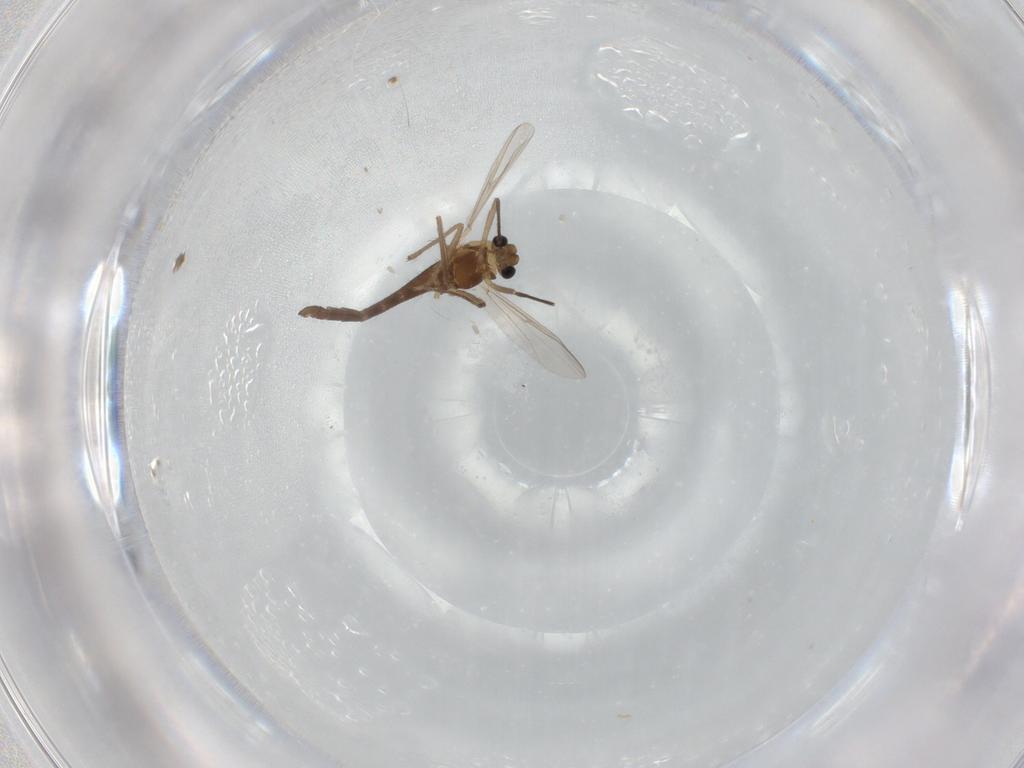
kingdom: Animalia
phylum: Arthropoda
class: Insecta
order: Diptera
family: Chironomidae
